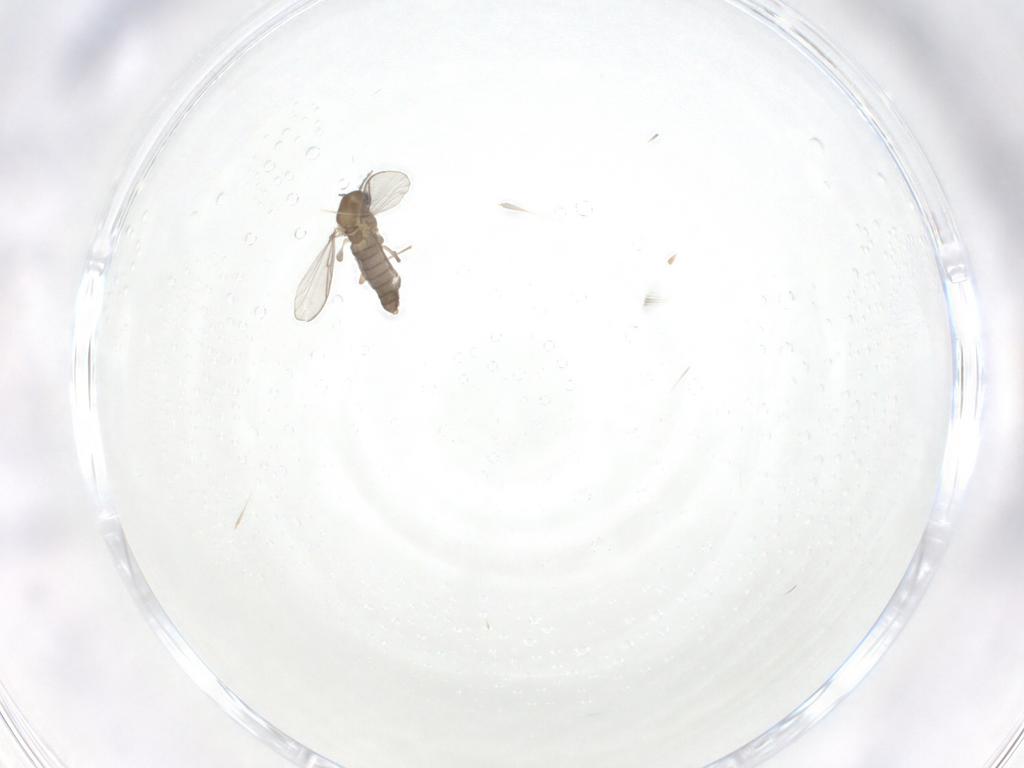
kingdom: Animalia
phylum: Arthropoda
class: Insecta
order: Diptera
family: Chironomidae
